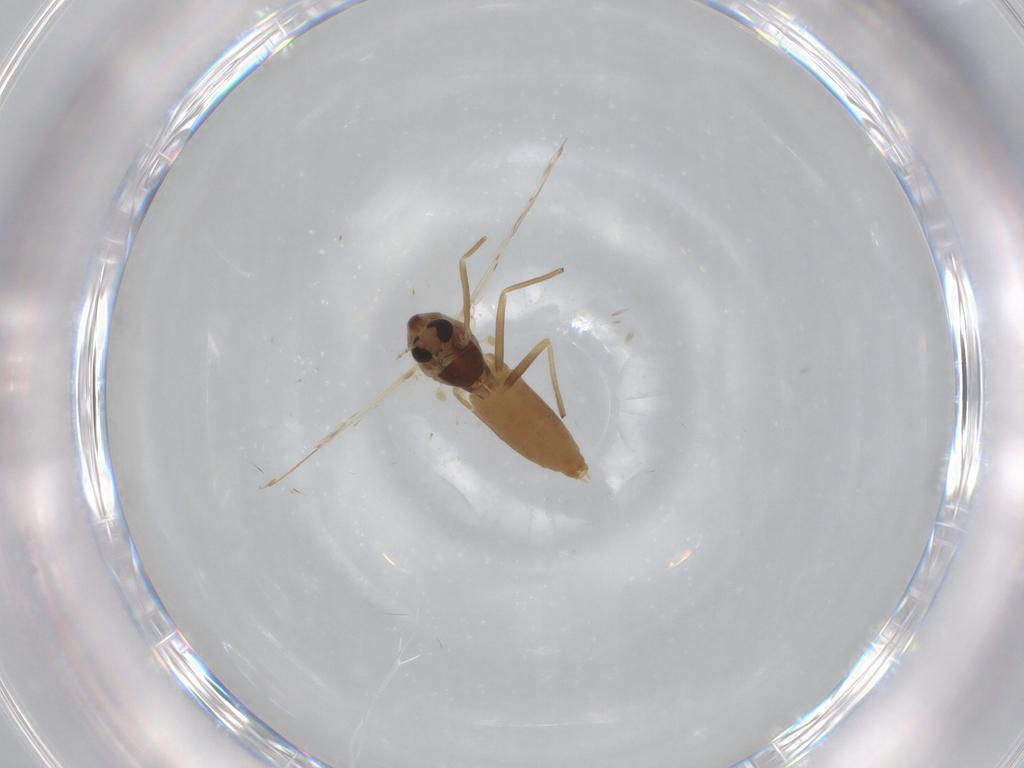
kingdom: Animalia
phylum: Arthropoda
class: Insecta
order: Diptera
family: Chironomidae
